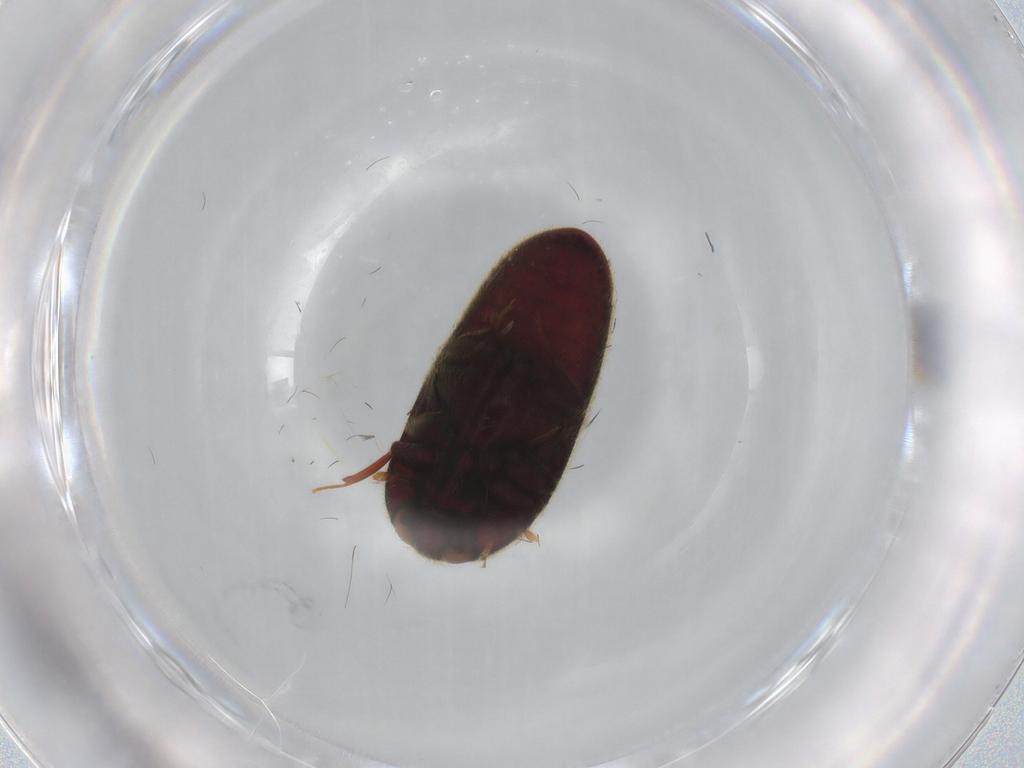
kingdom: Animalia
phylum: Arthropoda
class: Insecta
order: Coleoptera
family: Throscidae
